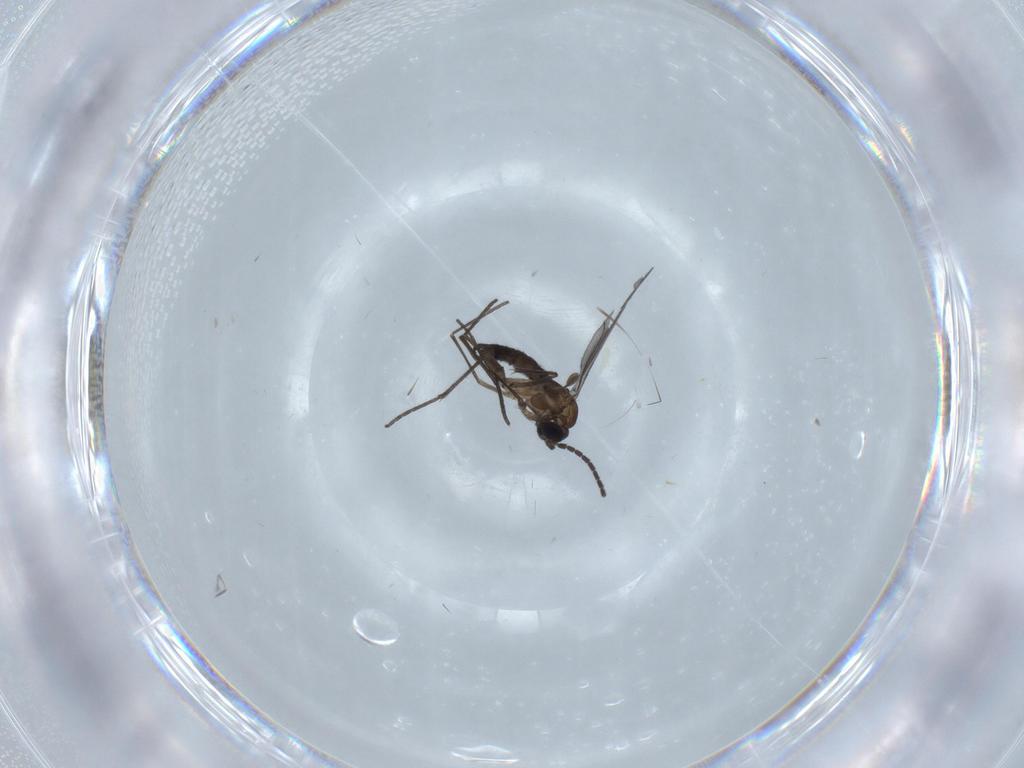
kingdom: Animalia
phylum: Arthropoda
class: Insecta
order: Diptera
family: Sciaridae
